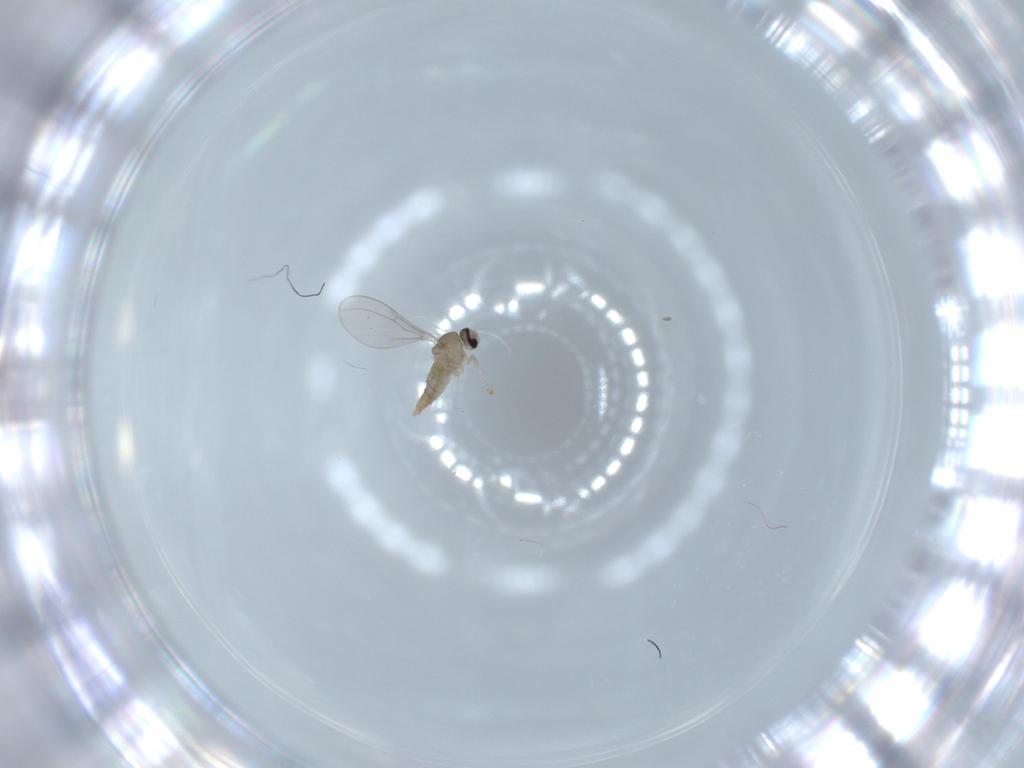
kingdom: Animalia
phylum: Arthropoda
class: Insecta
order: Diptera
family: Cecidomyiidae
